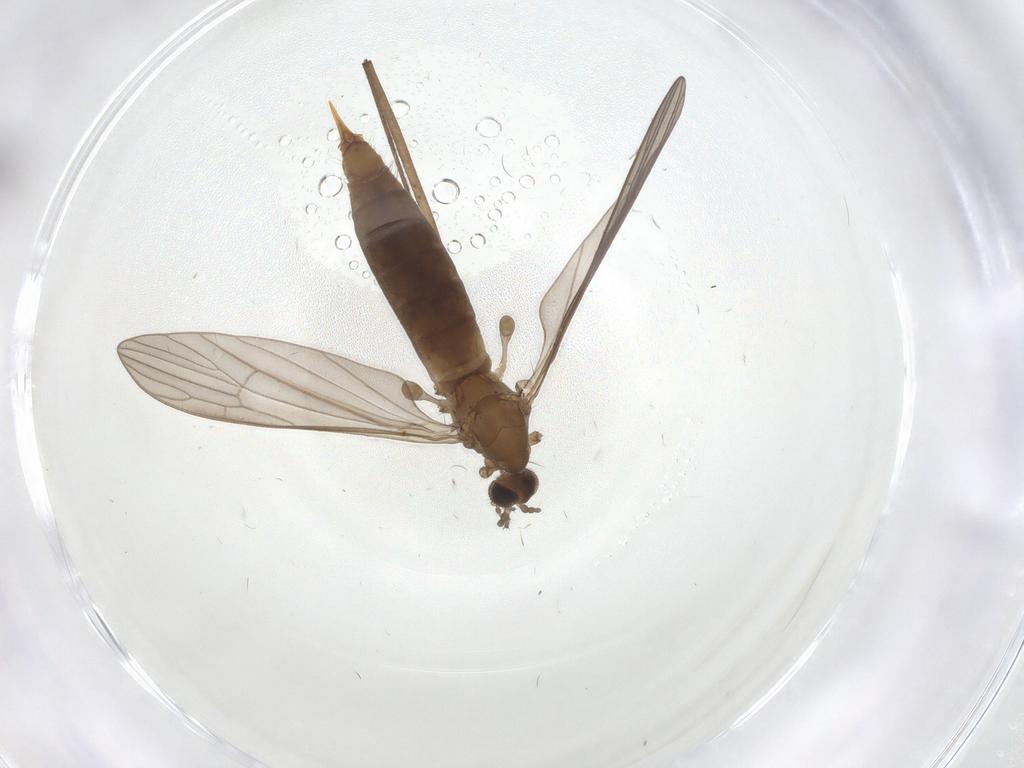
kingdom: Animalia
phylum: Arthropoda
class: Insecta
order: Diptera
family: Limoniidae
